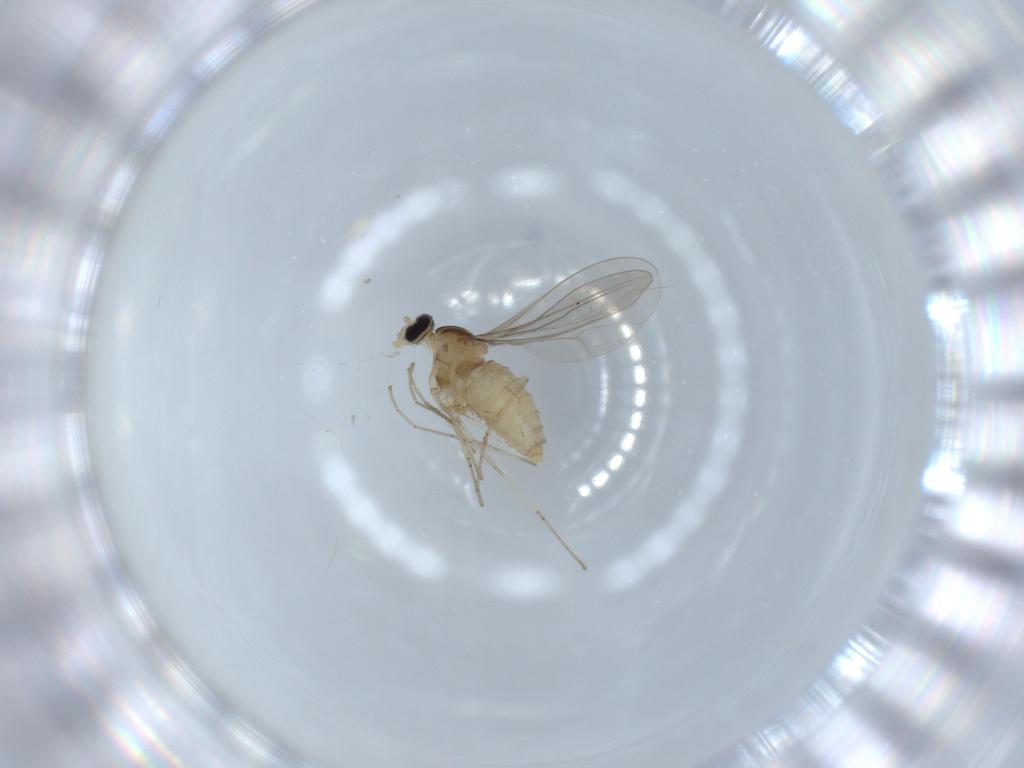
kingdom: Animalia
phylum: Arthropoda
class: Insecta
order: Diptera
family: Cecidomyiidae
